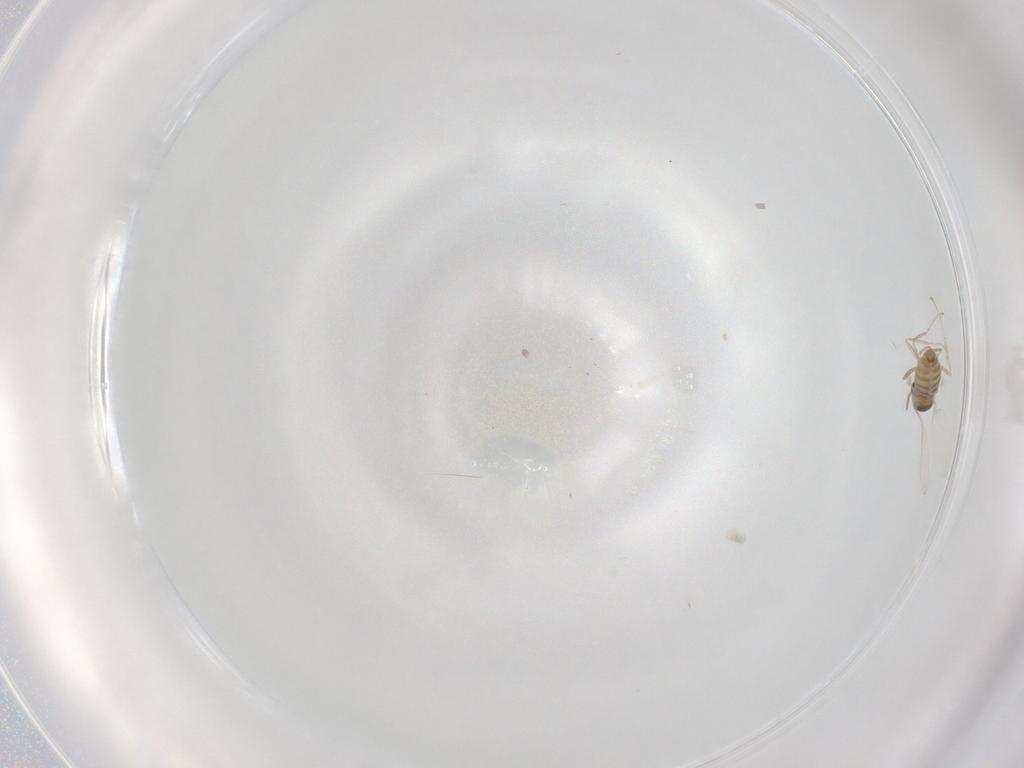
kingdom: Animalia
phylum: Arthropoda
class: Insecta
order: Diptera
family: Cecidomyiidae
